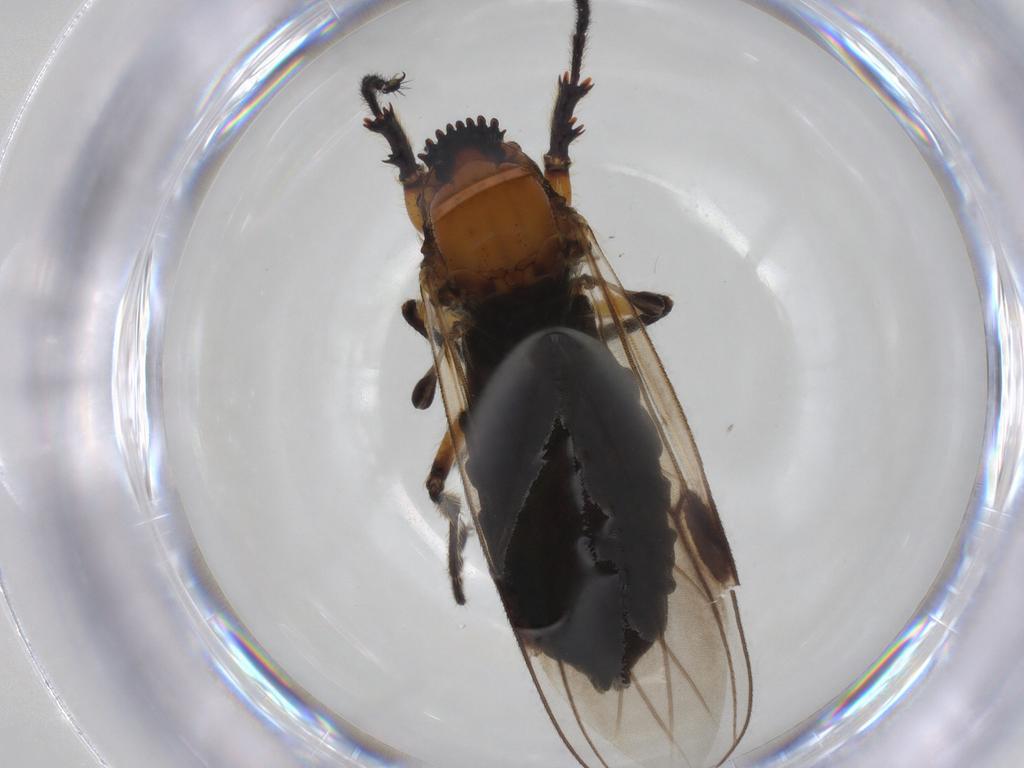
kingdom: Animalia
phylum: Arthropoda
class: Insecta
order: Diptera
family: Bibionidae
